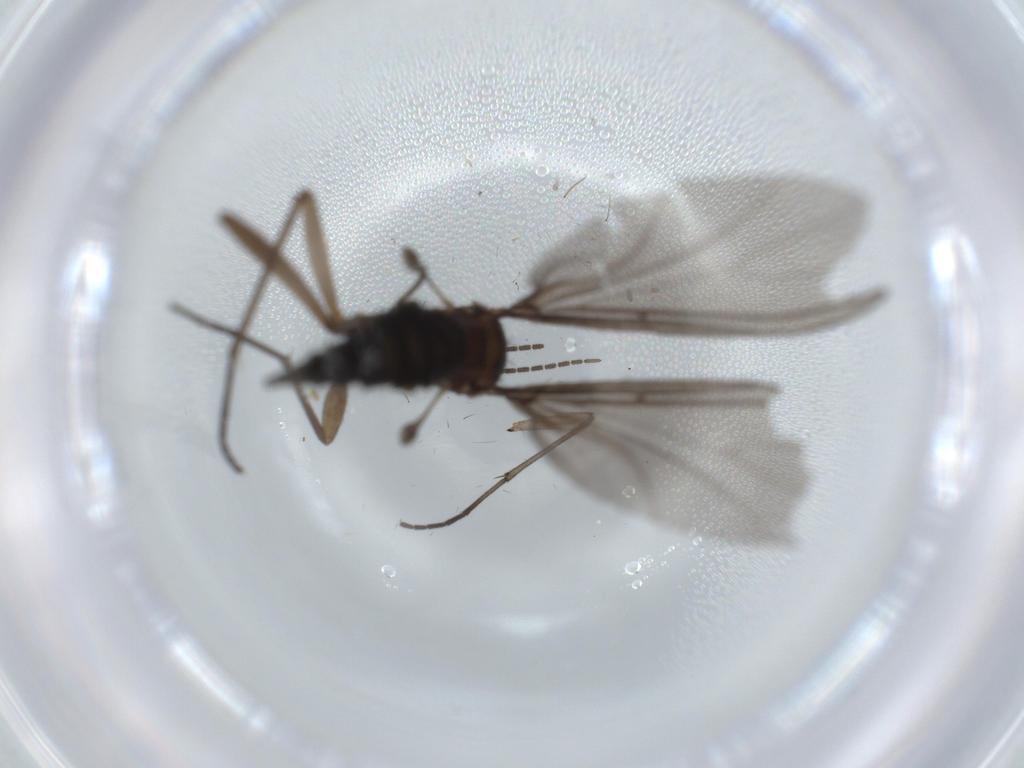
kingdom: Animalia
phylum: Arthropoda
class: Insecta
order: Diptera
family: Sciaridae
